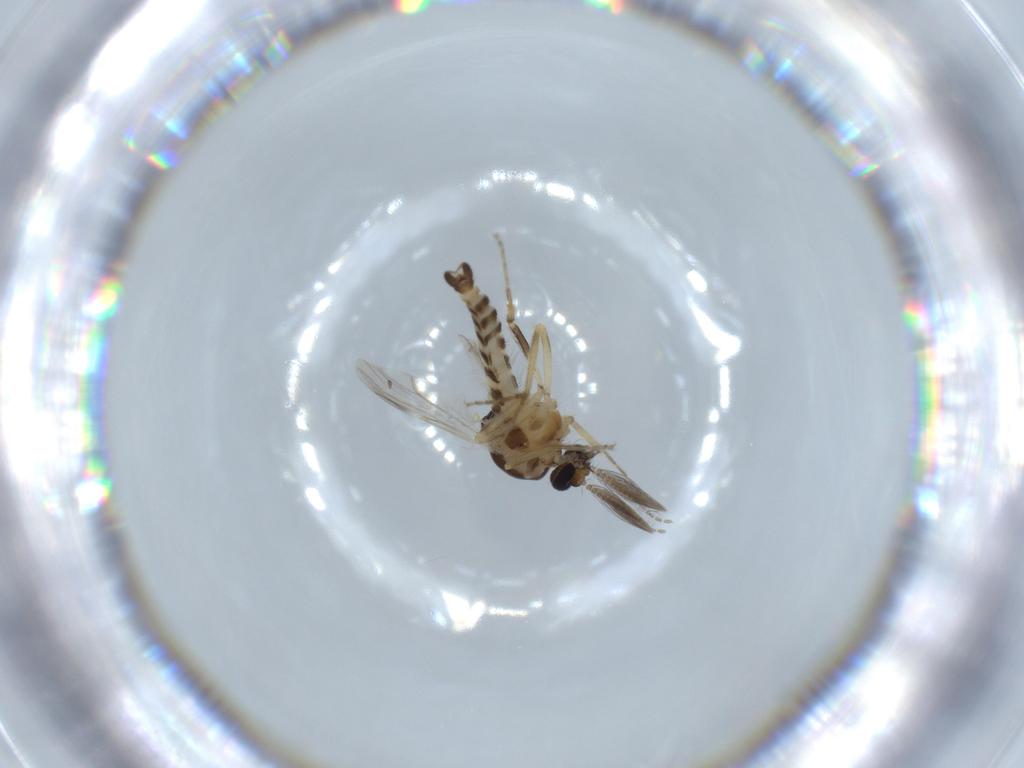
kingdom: Animalia
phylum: Arthropoda
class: Insecta
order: Diptera
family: Ceratopogonidae
